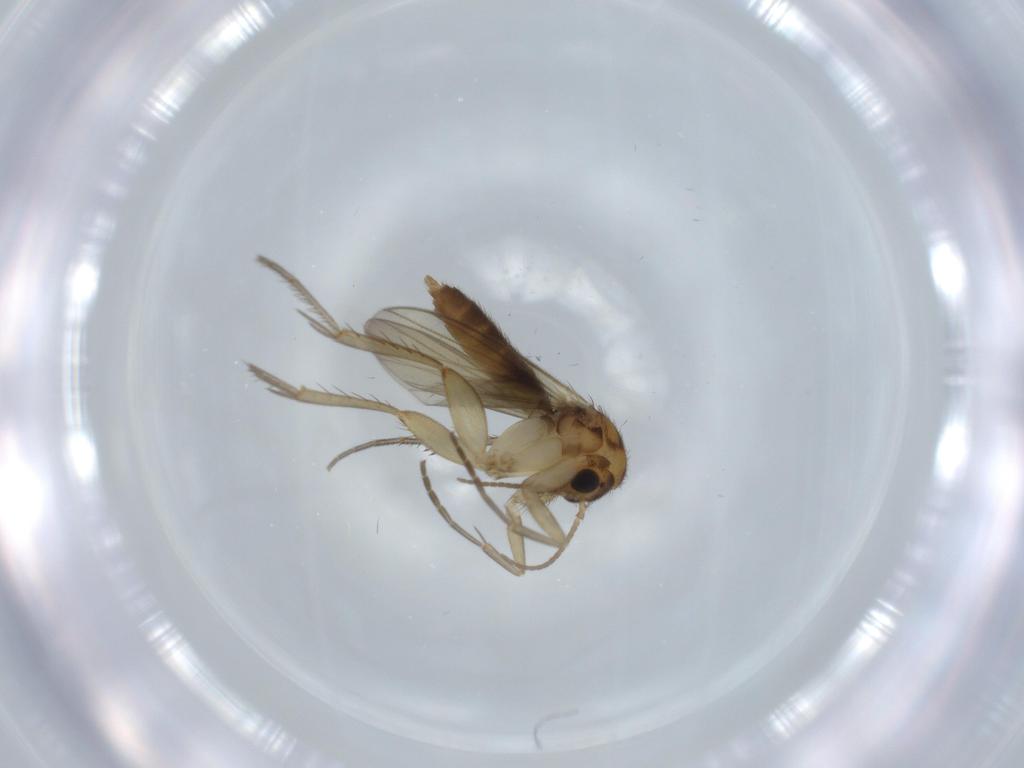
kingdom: Animalia
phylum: Arthropoda
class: Insecta
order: Diptera
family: Mycetophilidae
